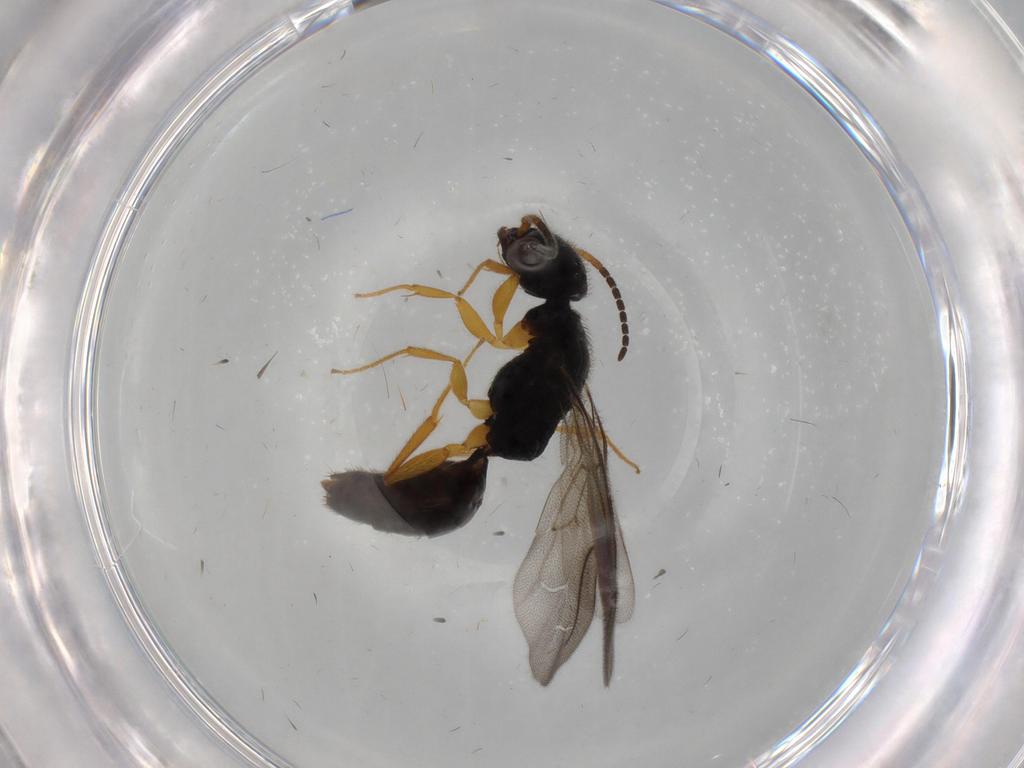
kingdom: Animalia
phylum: Arthropoda
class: Insecta
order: Hymenoptera
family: Bethylidae
